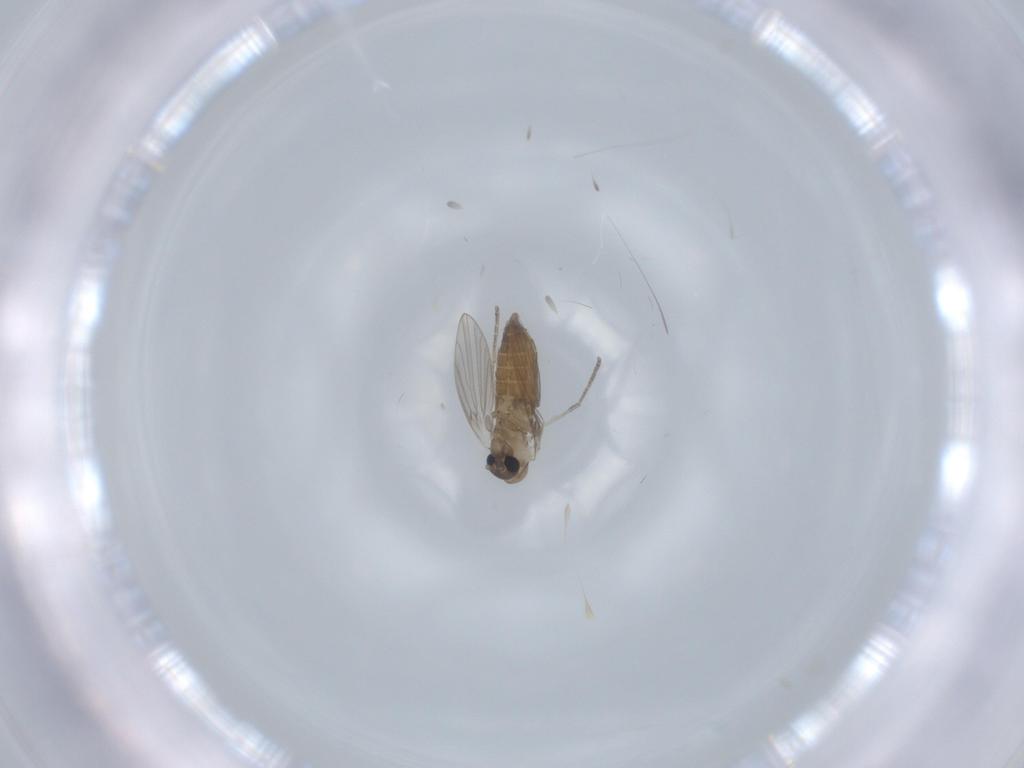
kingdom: Animalia
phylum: Arthropoda
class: Insecta
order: Diptera
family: Psychodidae
